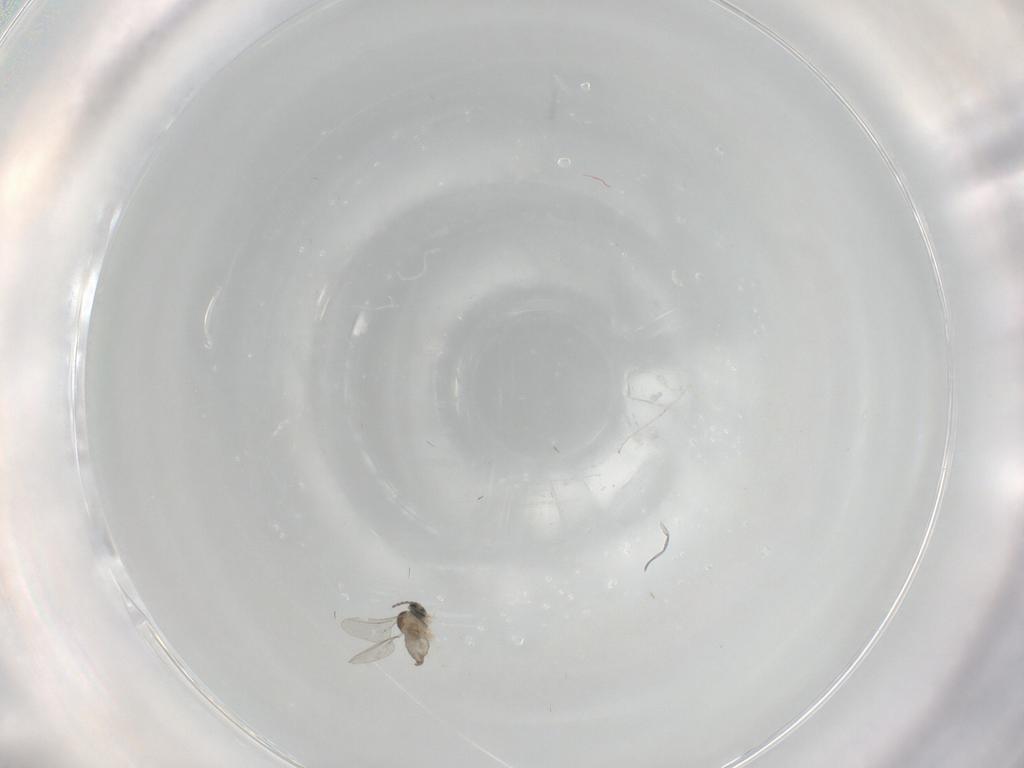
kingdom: Animalia
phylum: Arthropoda
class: Insecta
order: Diptera
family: Cecidomyiidae
